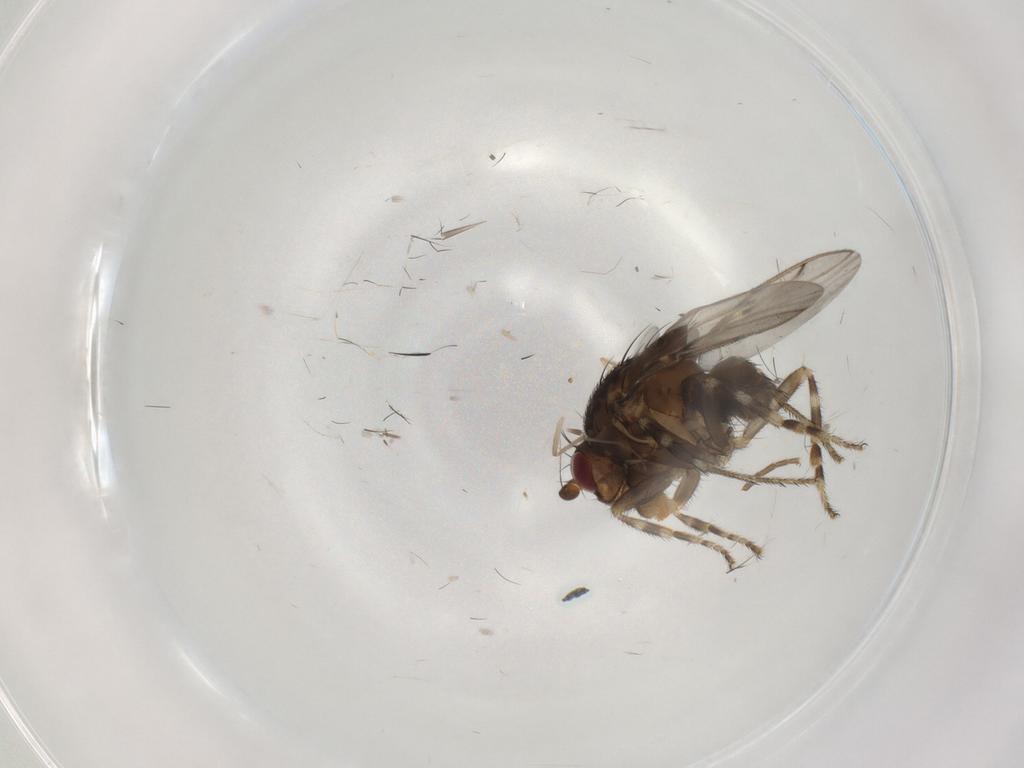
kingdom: Animalia
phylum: Arthropoda
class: Insecta
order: Diptera
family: Sphaeroceridae
